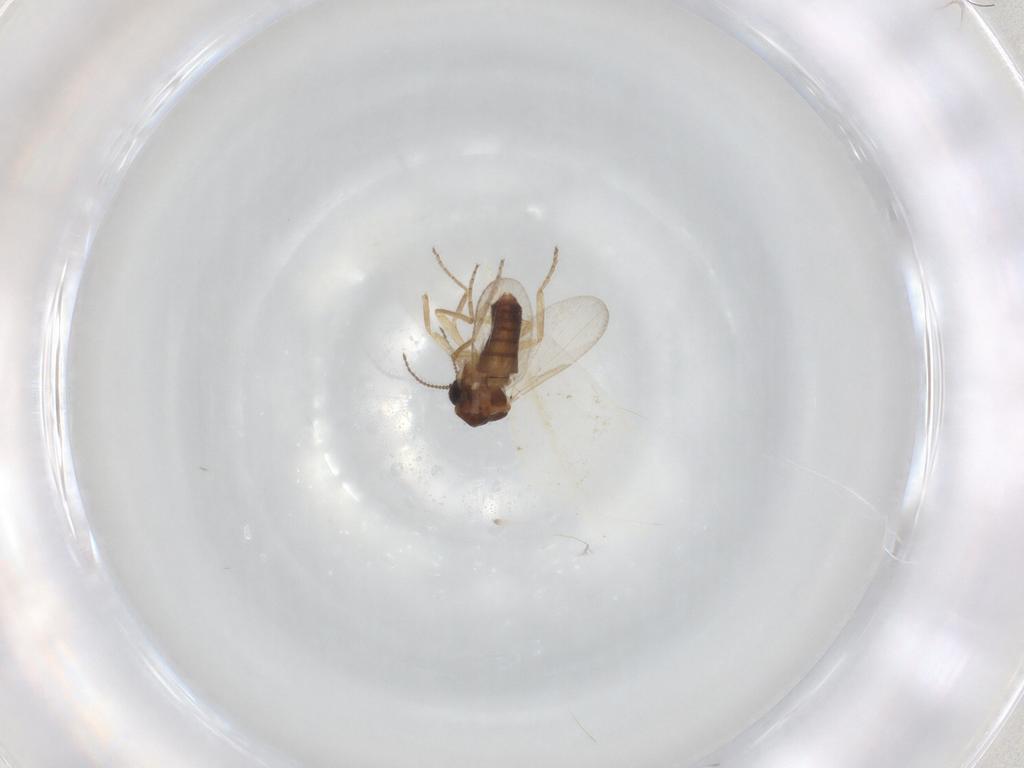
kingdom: Animalia
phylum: Arthropoda
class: Insecta
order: Diptera
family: Ceratopogonidae
